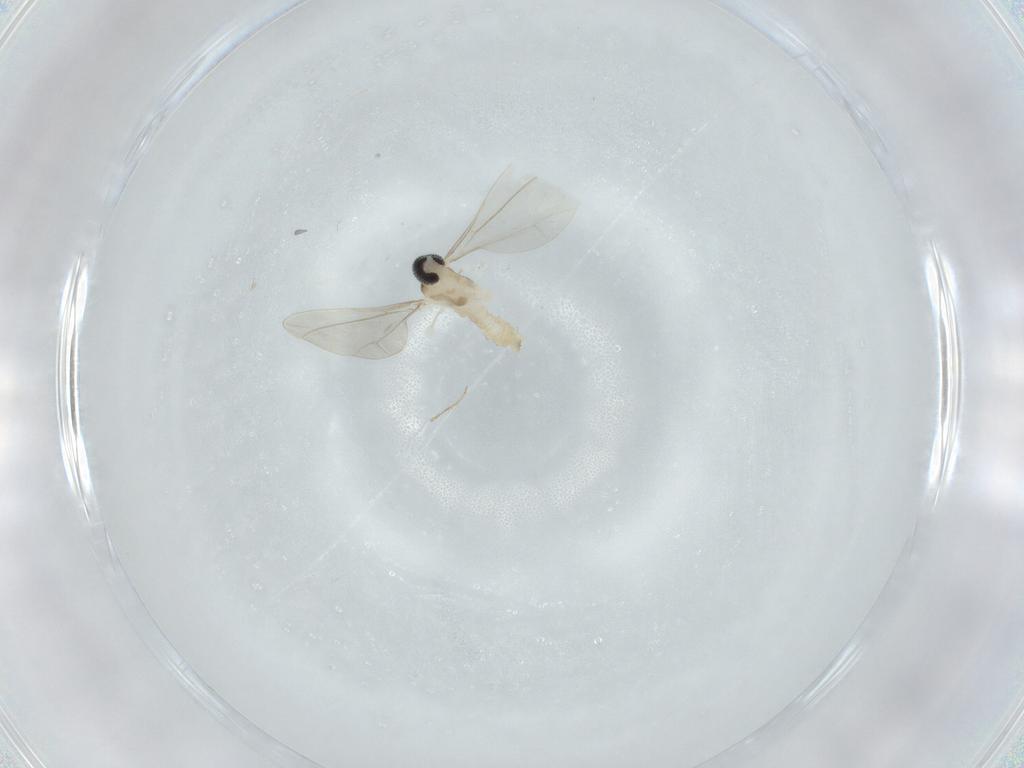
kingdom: Animalia
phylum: Arthropoda
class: Insecta
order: Diptera
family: Cecidomyiidae
